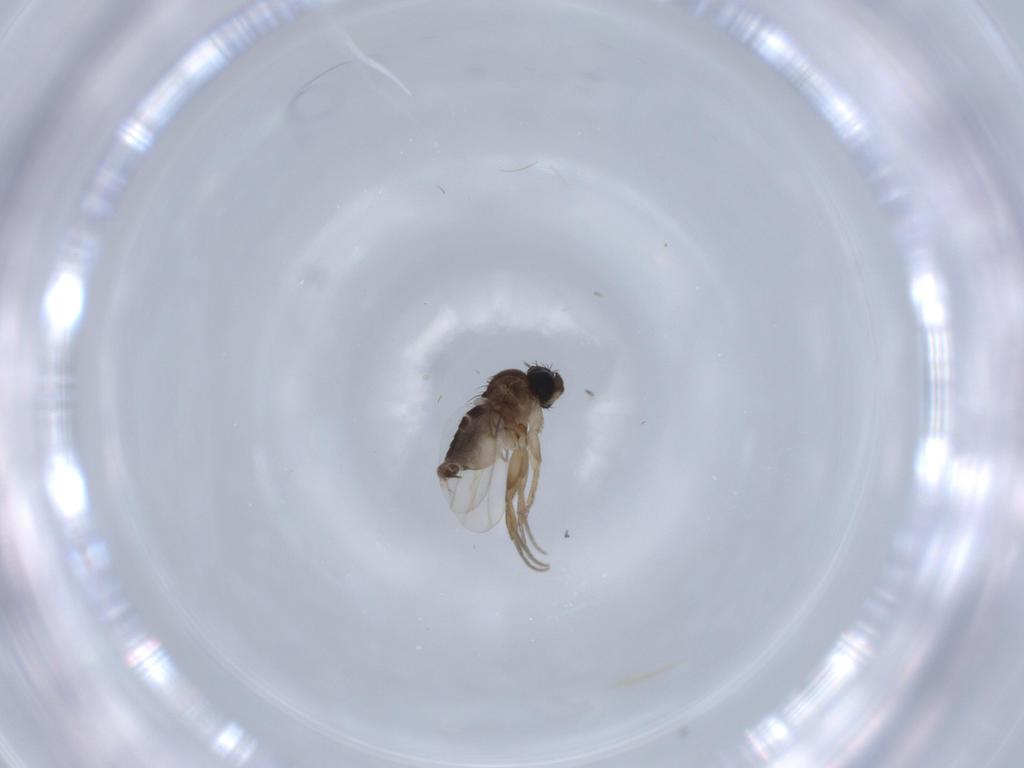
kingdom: Animalia
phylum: Arthropoda
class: Insecta
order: Diptera
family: Phoridae
